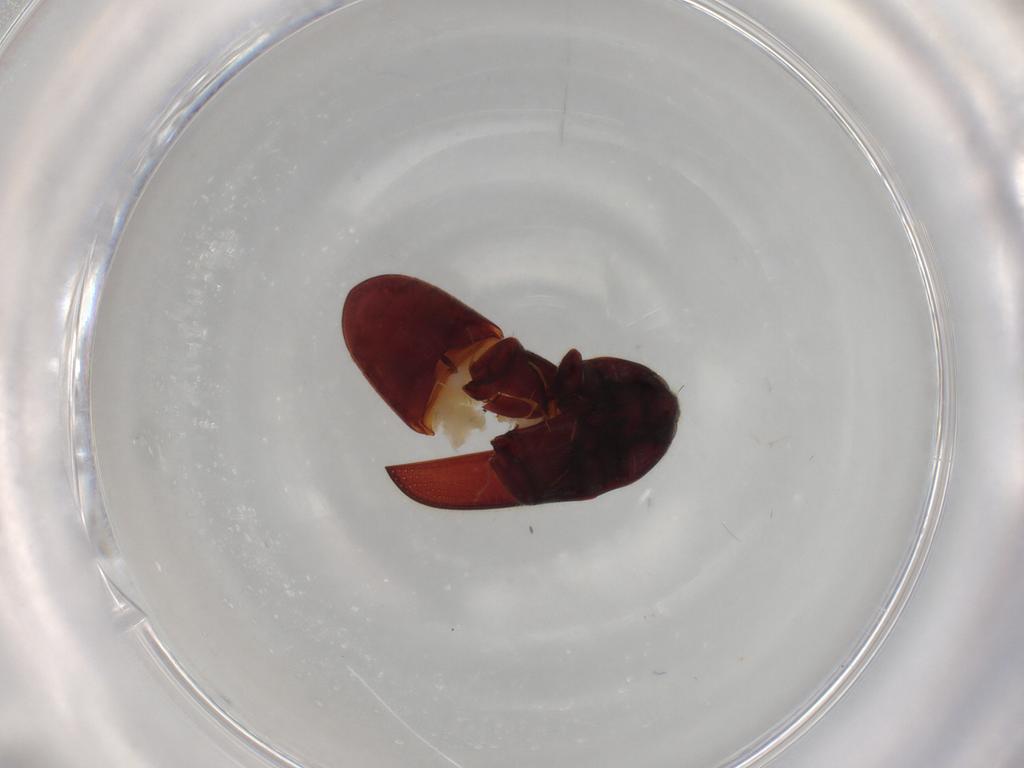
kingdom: Animalia
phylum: Arthropoda
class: Insecta
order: Coleoptera
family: Throscidae
